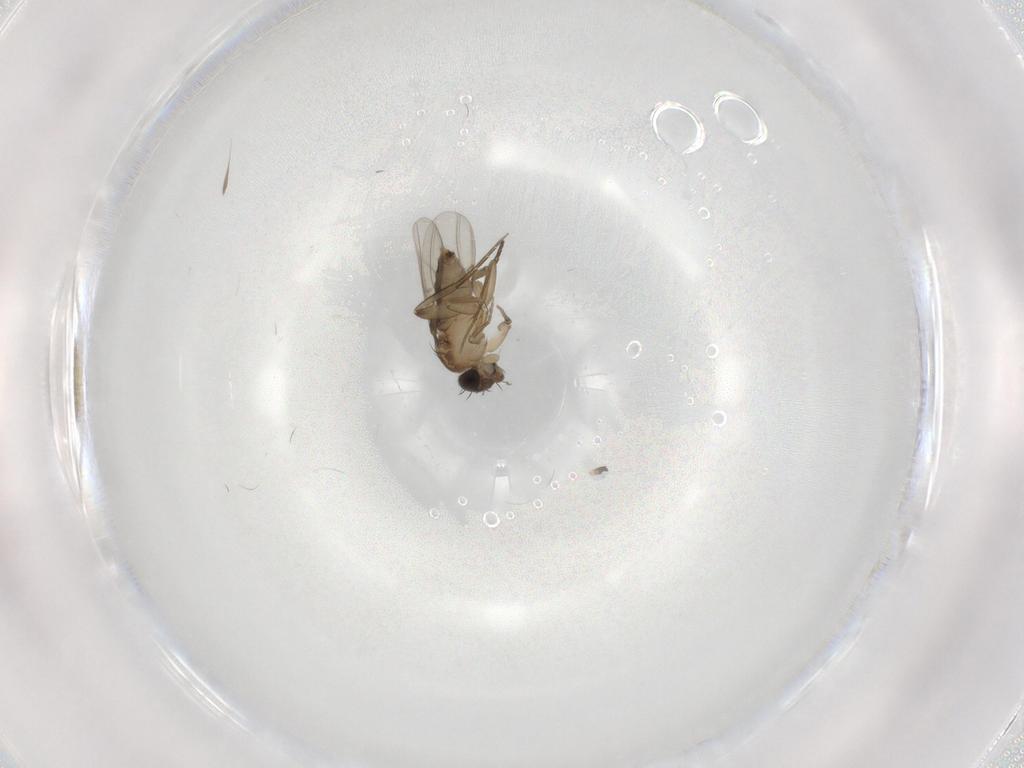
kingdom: Animalia
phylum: Arthropoda
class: Insecta
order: Diptera
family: Phoridae
